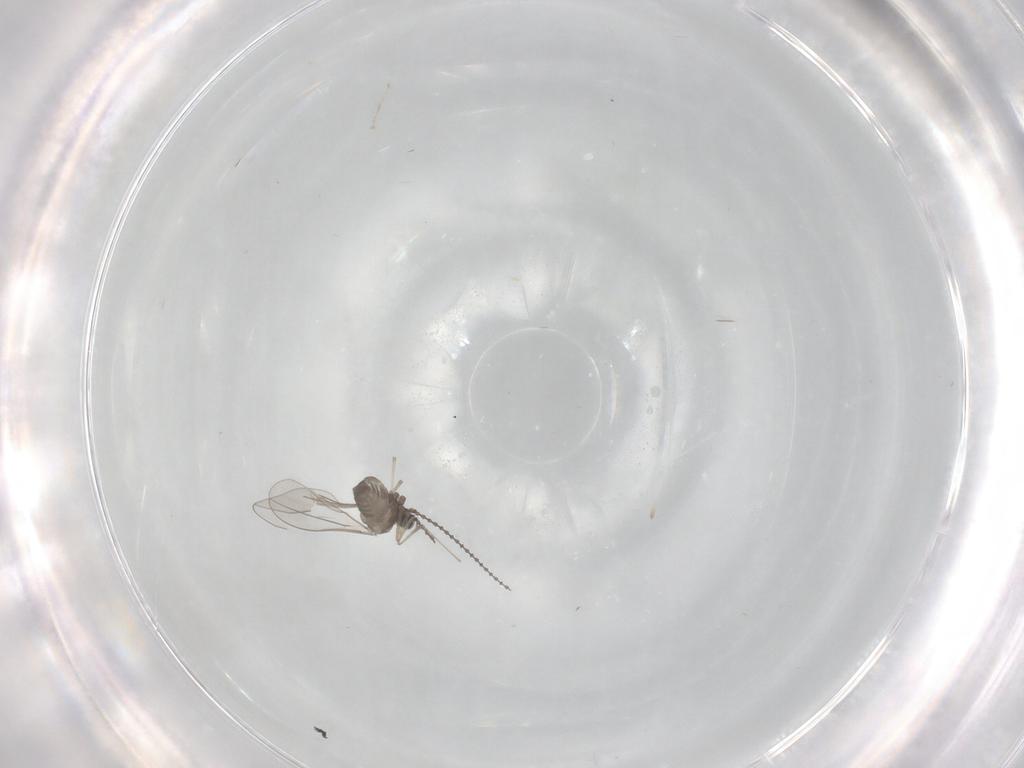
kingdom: Animalia
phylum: Arthropoda
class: Insecta
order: Diptera
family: Cecidomyiidae
